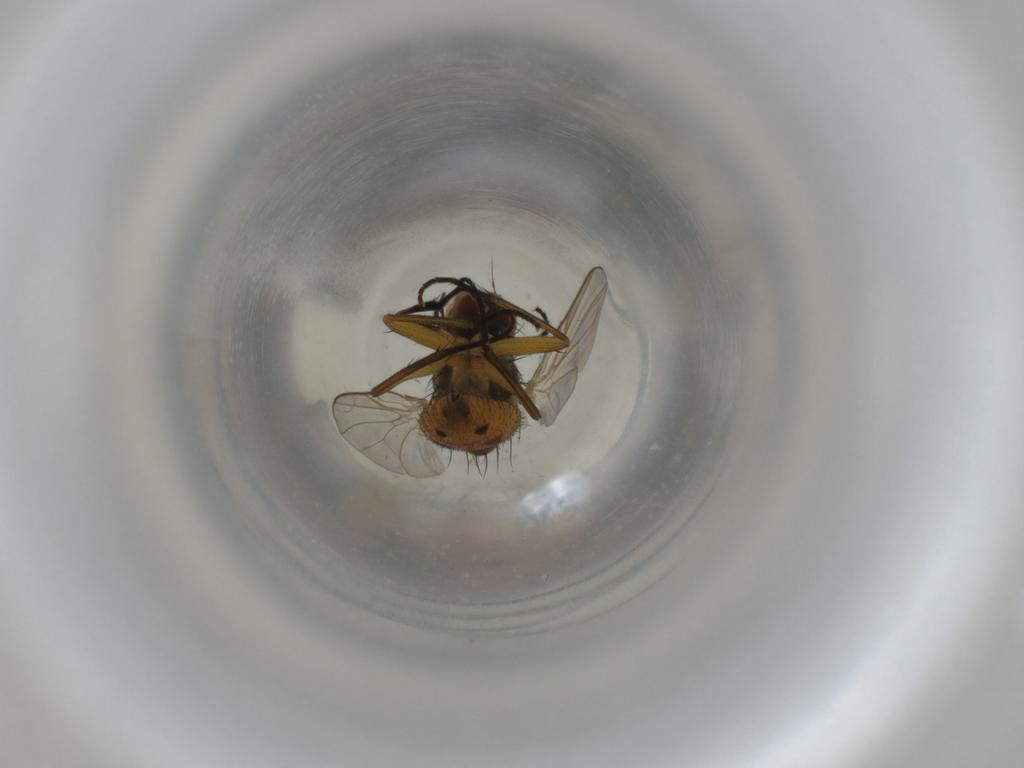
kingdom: Animalia
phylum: Arthropoda
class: Insecta
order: Diptera
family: Muscidae
